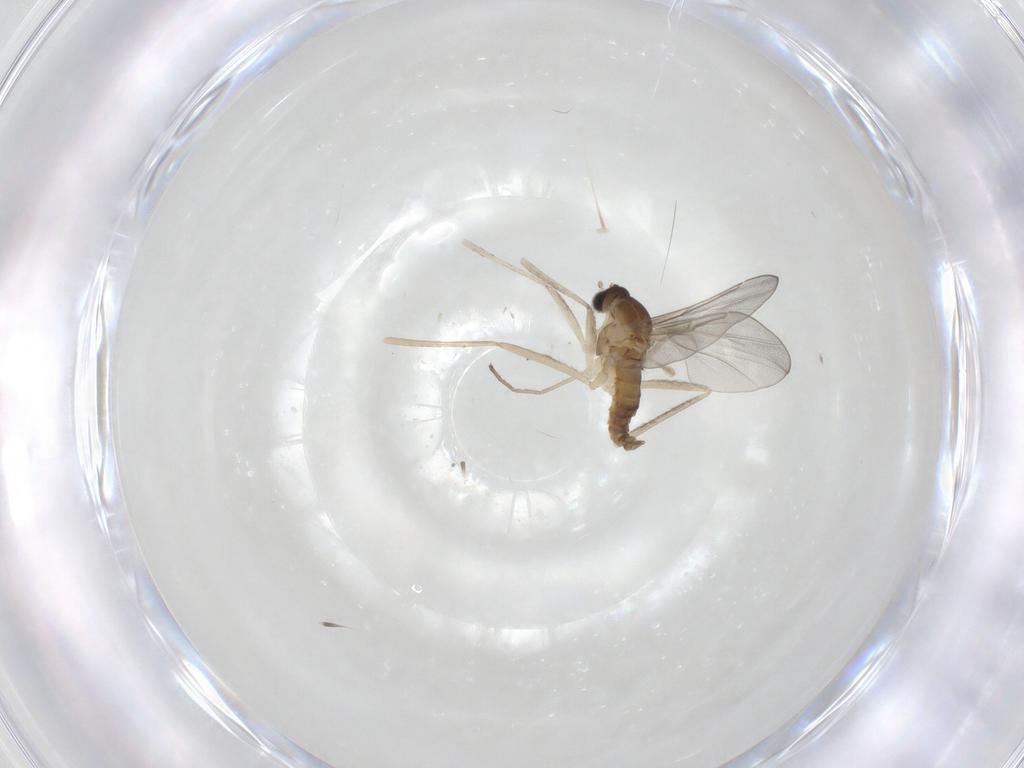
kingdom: Animalia
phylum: Arthropoda
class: Insecta
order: Diptera
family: Cecidomyiidae
